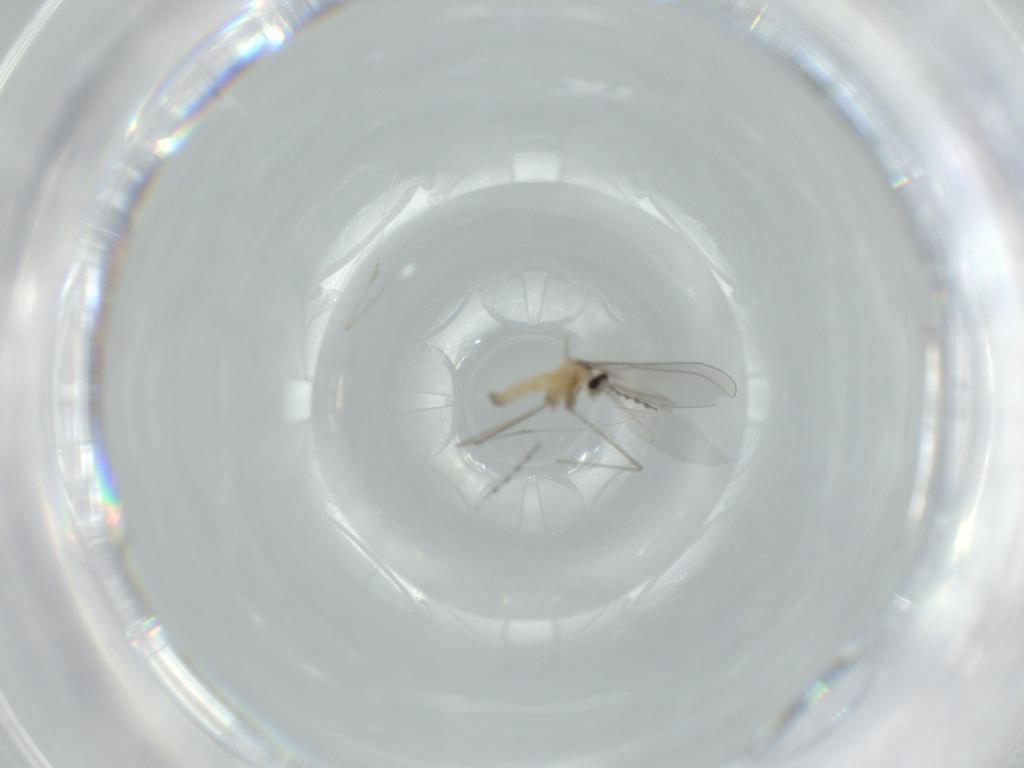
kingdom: Animalia
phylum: Arthropoda
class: Insecta
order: Diptera
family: Cecidomyiidae
